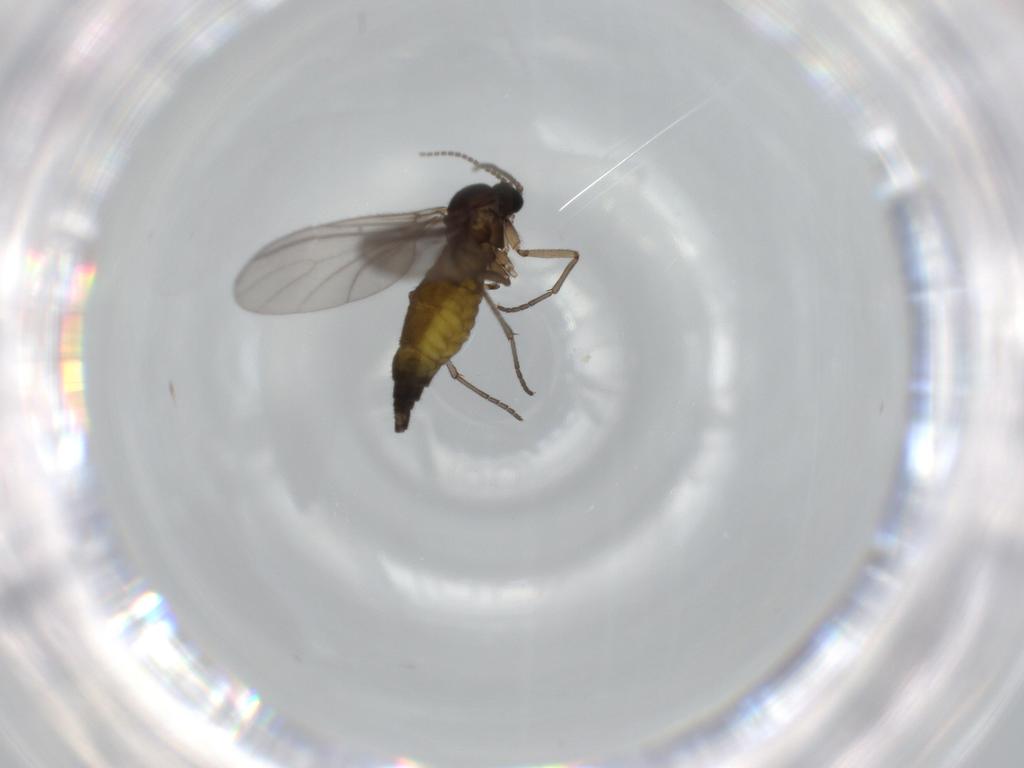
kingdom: Animalia
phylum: Arthropoda
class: Insecta
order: Diptera
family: Sciaridae
